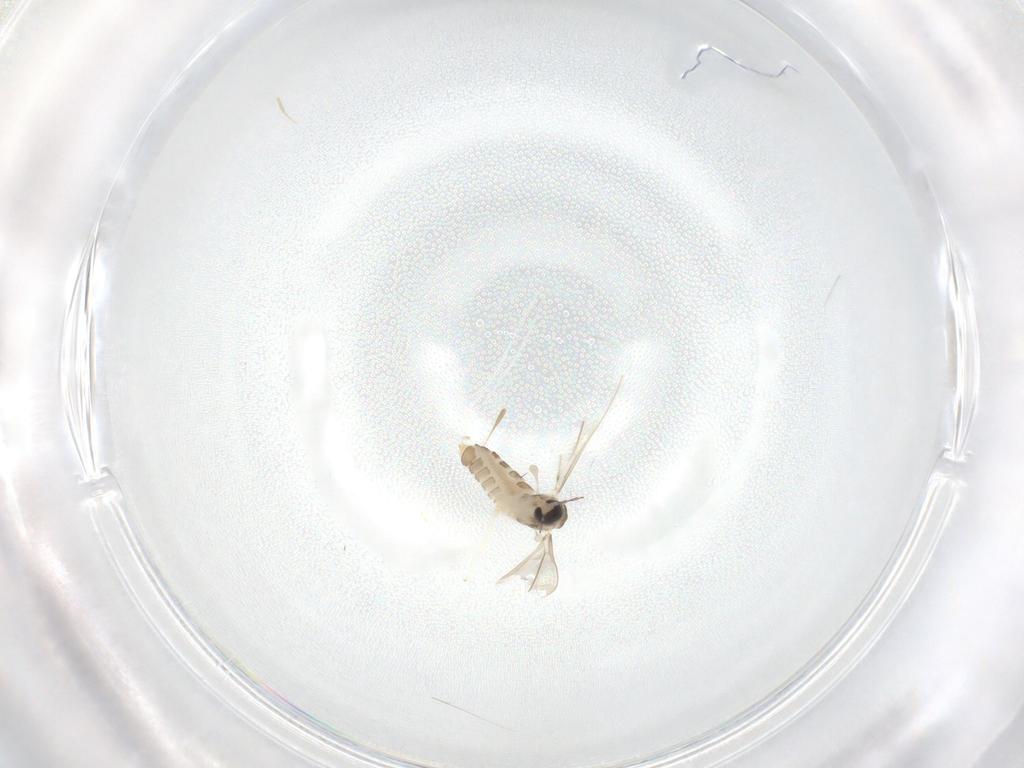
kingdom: Animalia
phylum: Arthropoda
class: Insecta
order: Diptera
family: Cecidomyiidae
